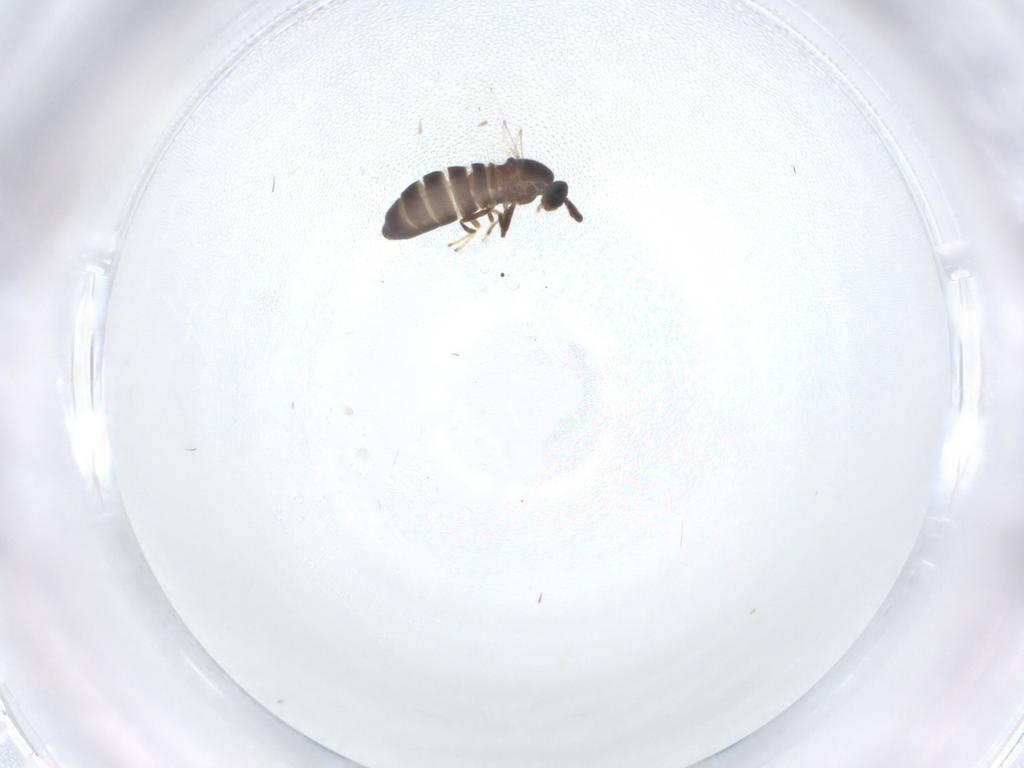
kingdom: Animalia
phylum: Arthropoda
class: Insecta
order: Diptera
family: Scatopsidae
